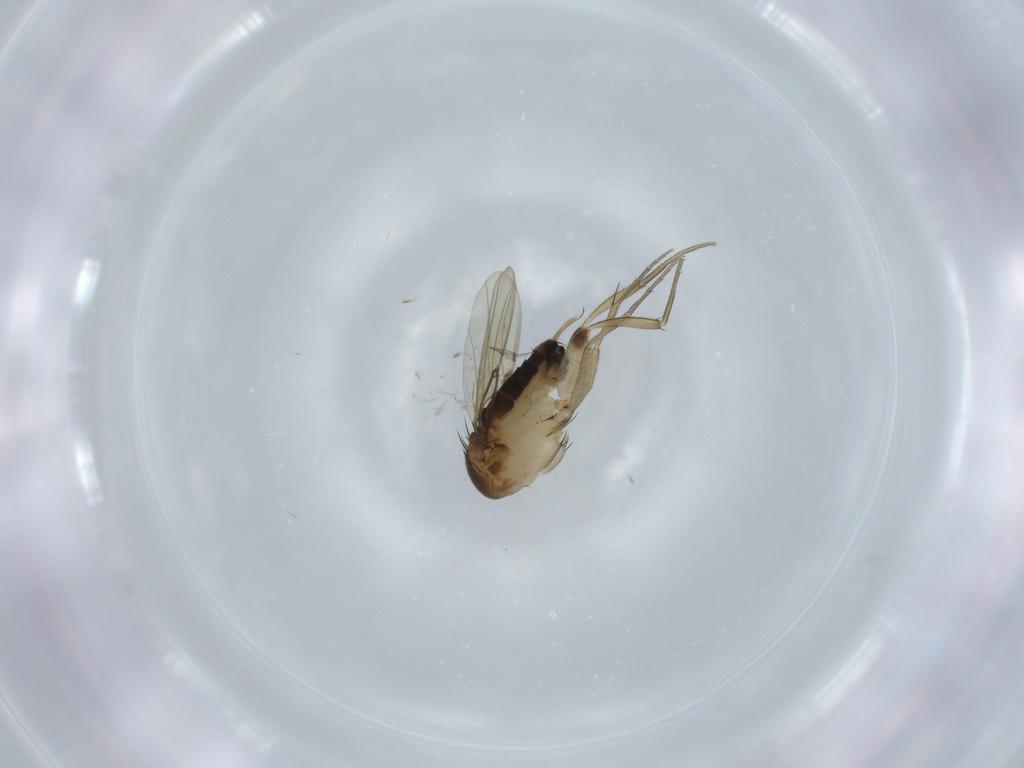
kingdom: Animalia
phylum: Arthropoda
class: Insecta
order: Diptera
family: Phoridae
